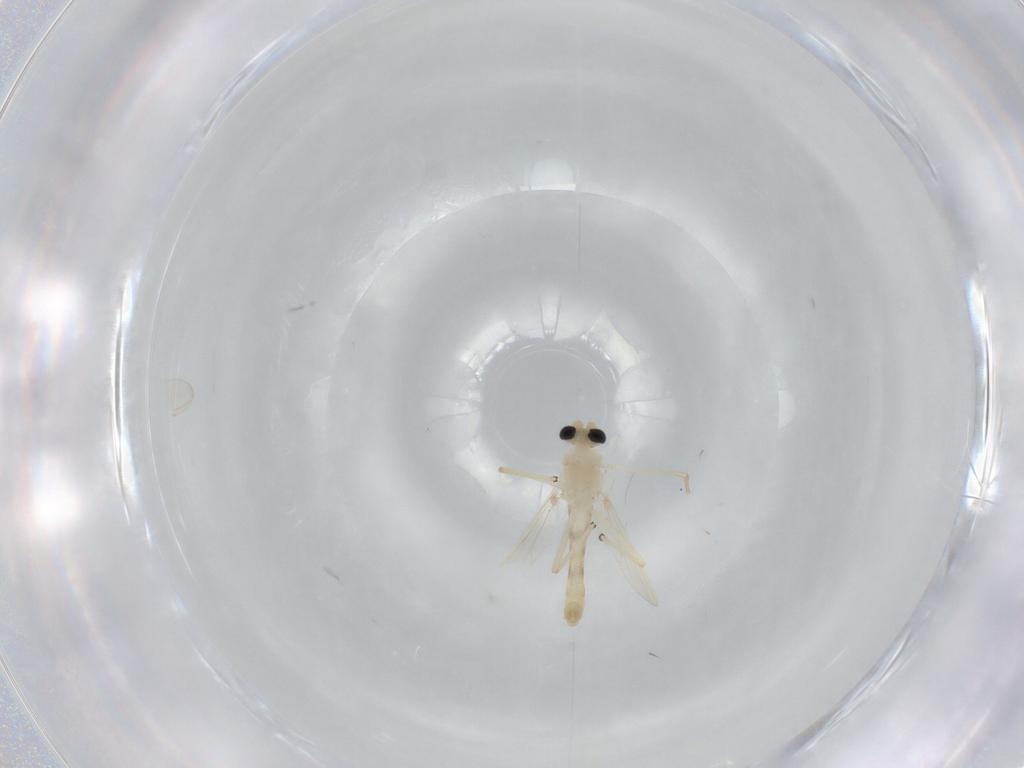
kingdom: Animalia
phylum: Arthropoda
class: Insecta
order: Diptera
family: Chironomidae
